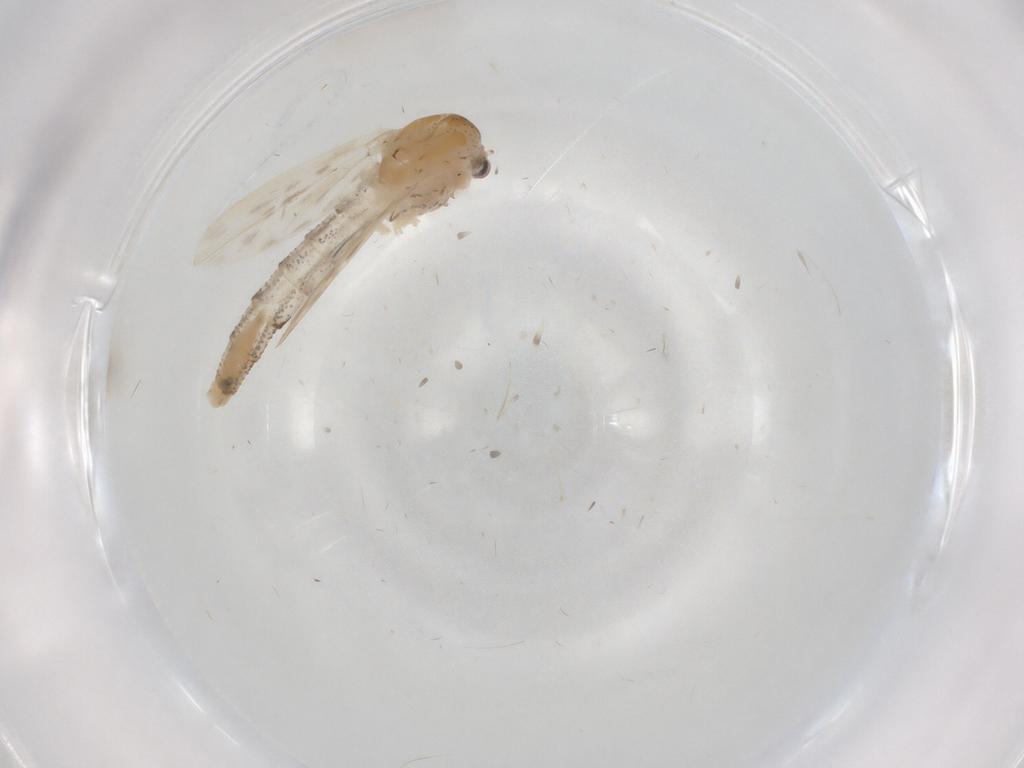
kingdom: Animalia
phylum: Arthropoda
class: Insecta
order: Diptera
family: Chaoboridae
